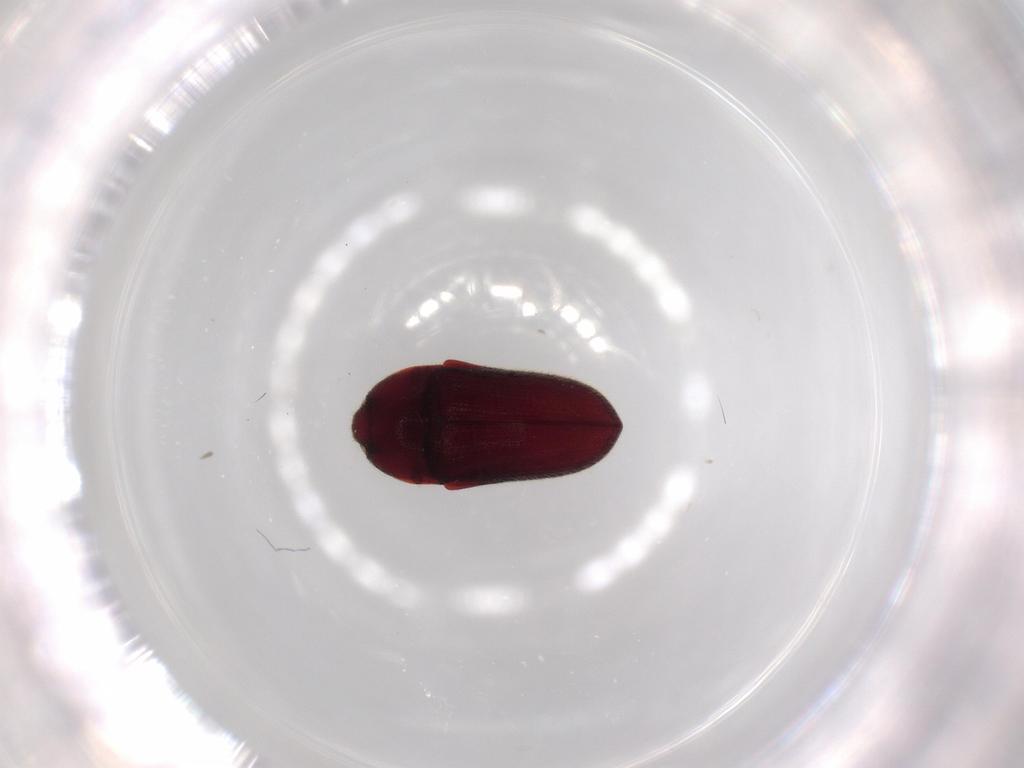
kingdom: Animalia
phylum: Arthropoda
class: Insecta
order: Coleoptera
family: Throscidae
